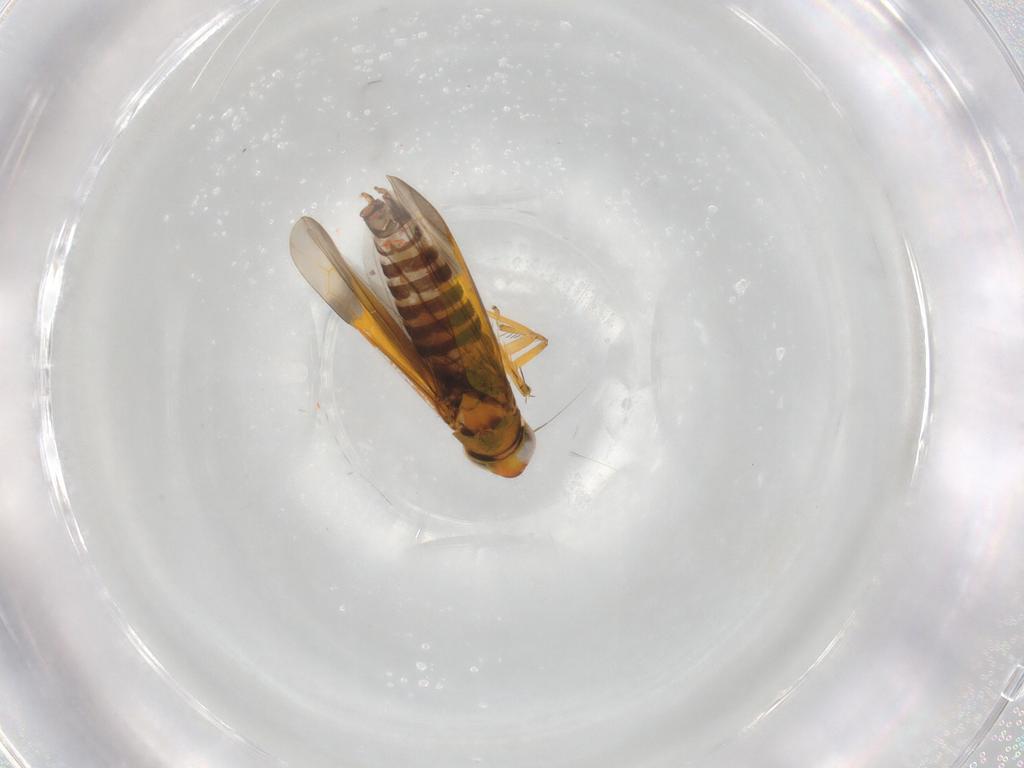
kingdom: Animalia
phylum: Arthropoda
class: Insecta
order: Hemiptera
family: Cicadellidae
